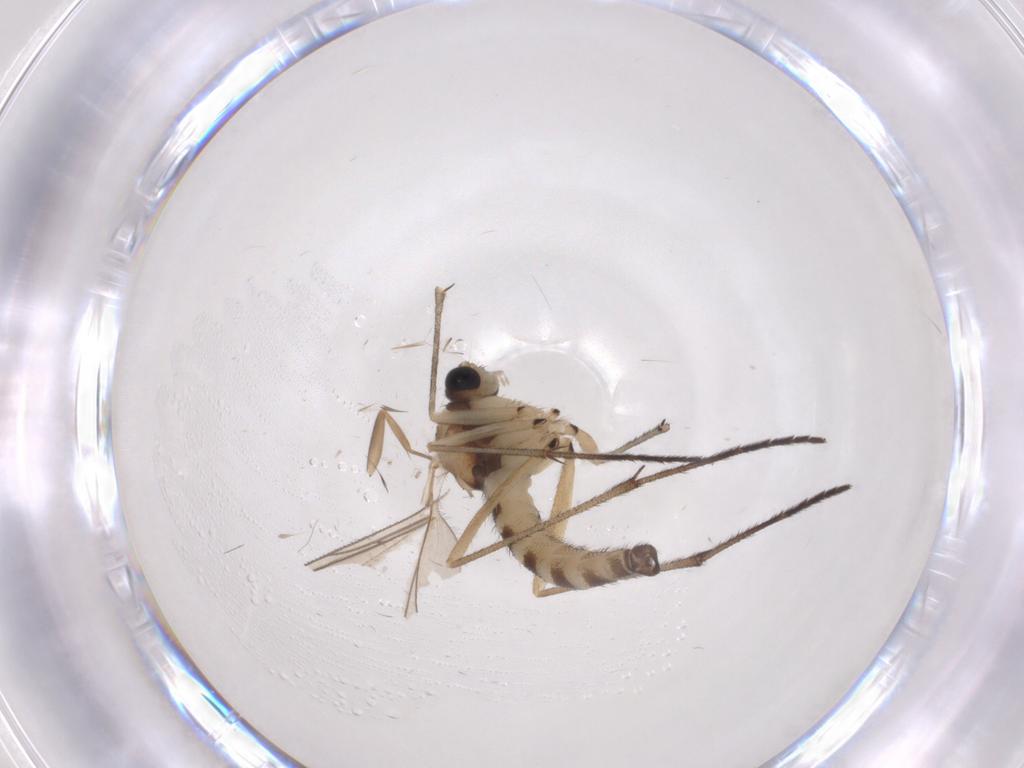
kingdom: Animalia
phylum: Arthropoda
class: Insecta
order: Diptera
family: Sciaridae
